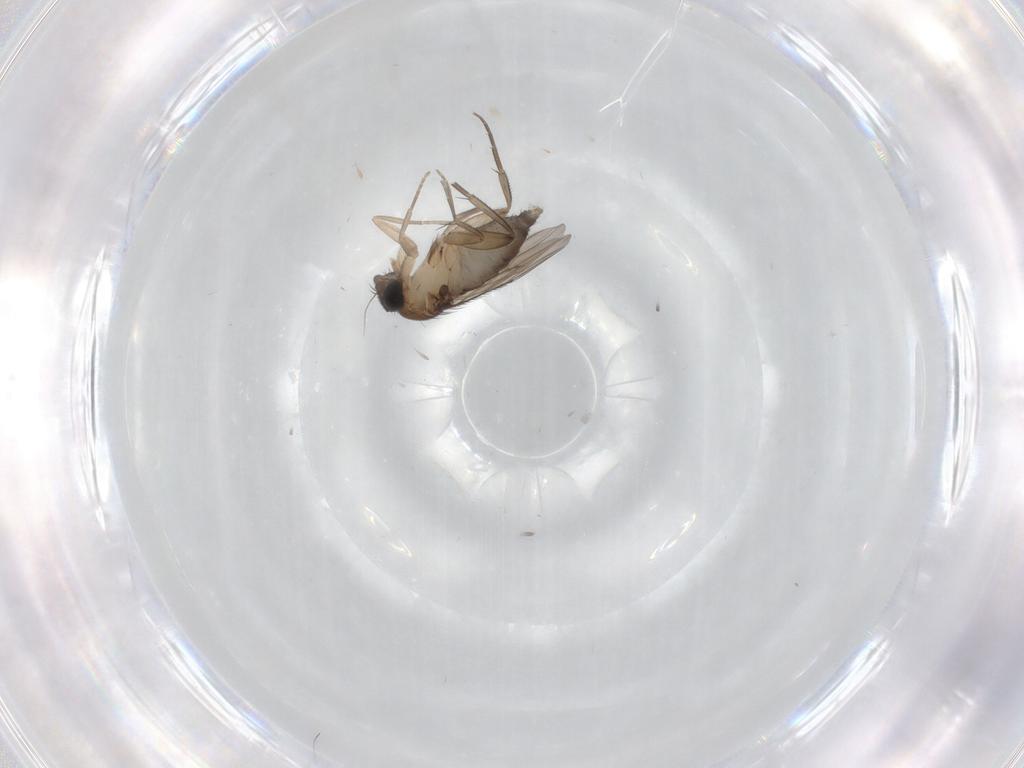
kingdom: Animalia
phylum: Arthropoda
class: Insecta
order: Diptera
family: Phoridae
